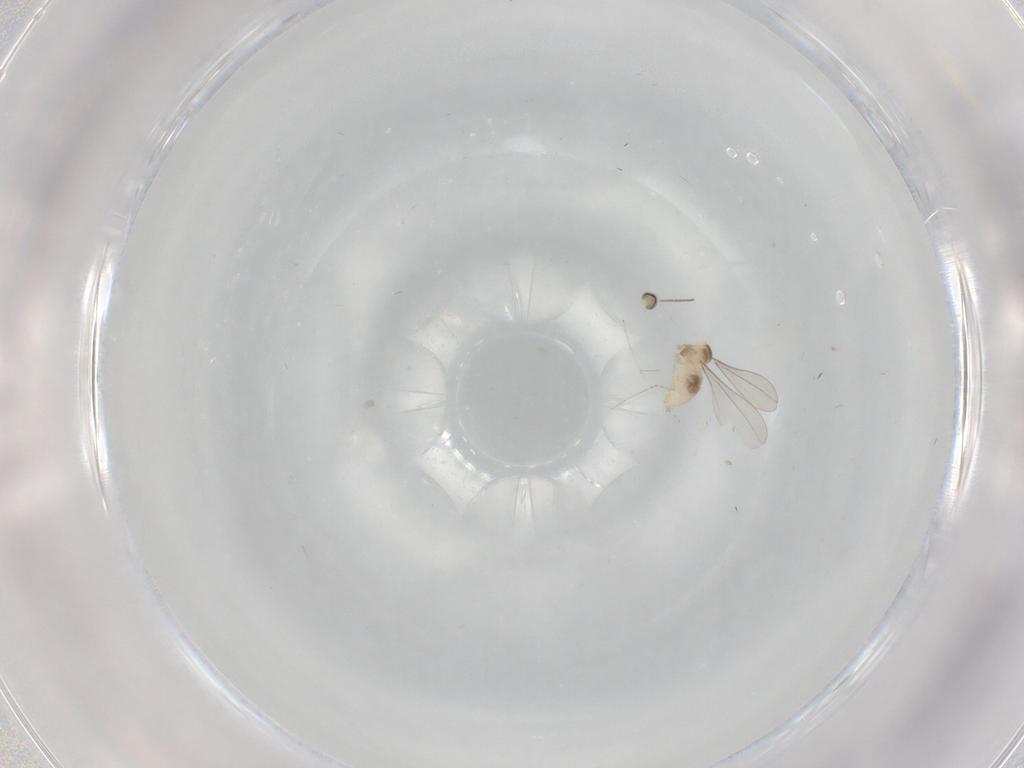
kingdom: Animalia
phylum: Arthropoda
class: Insecta
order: Diptera
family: Cecidomyiidae
